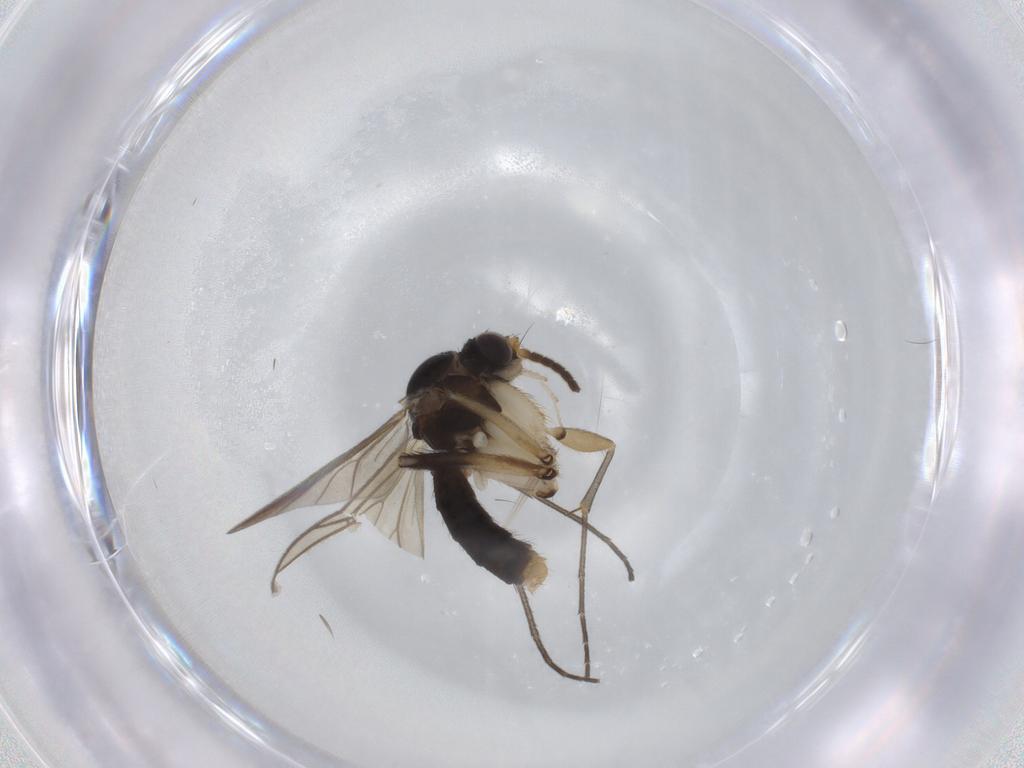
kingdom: Animalia
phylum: Arthropoda
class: Insecta
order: Diptera
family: Mycetophilidae
